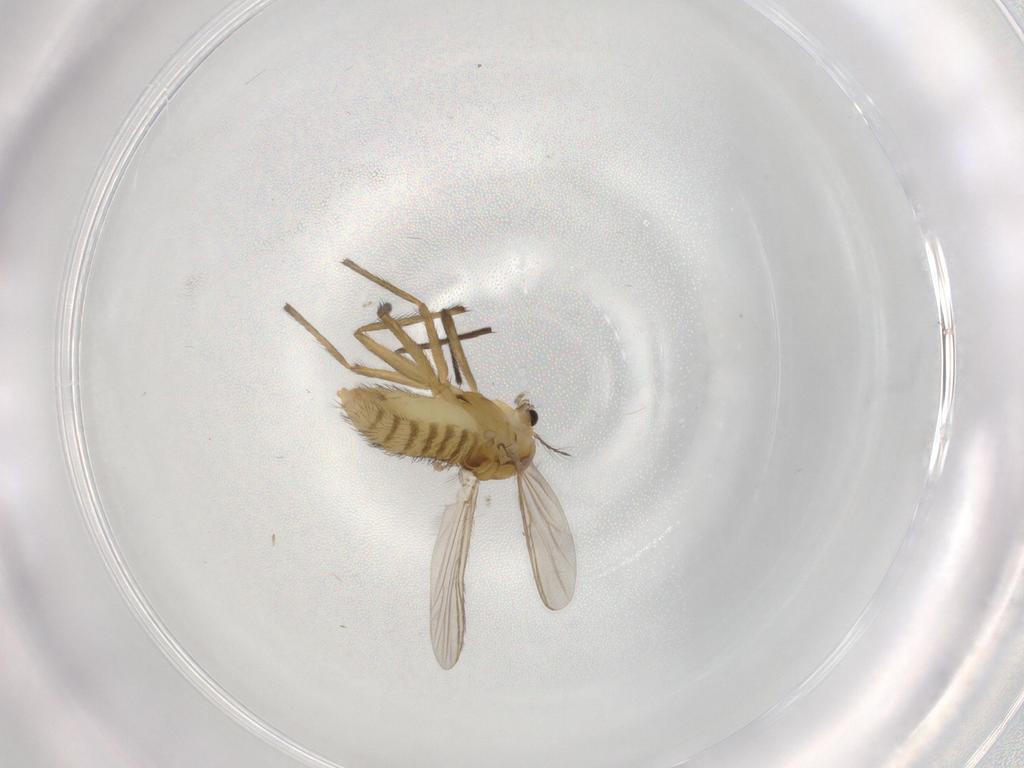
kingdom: Animalia
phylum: Arthropoda
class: Insecta
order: Diptera
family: Chironomidae
